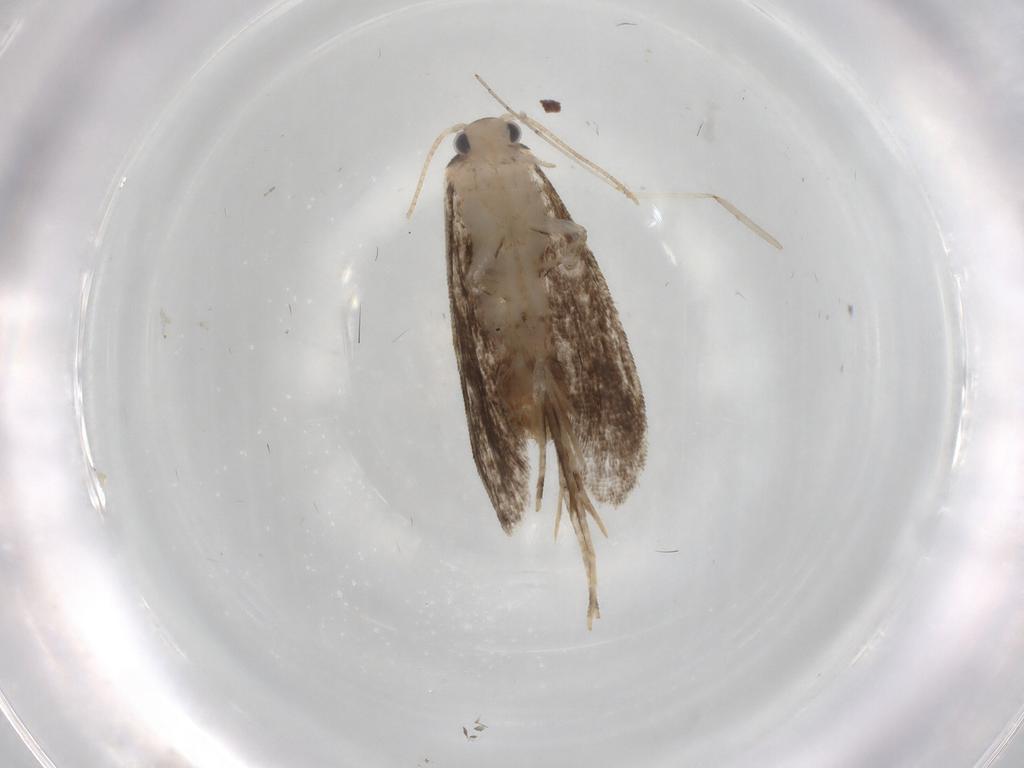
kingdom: Animalia
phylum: Arthropoda
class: Insecta
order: Lepidoptera
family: Tineidae
